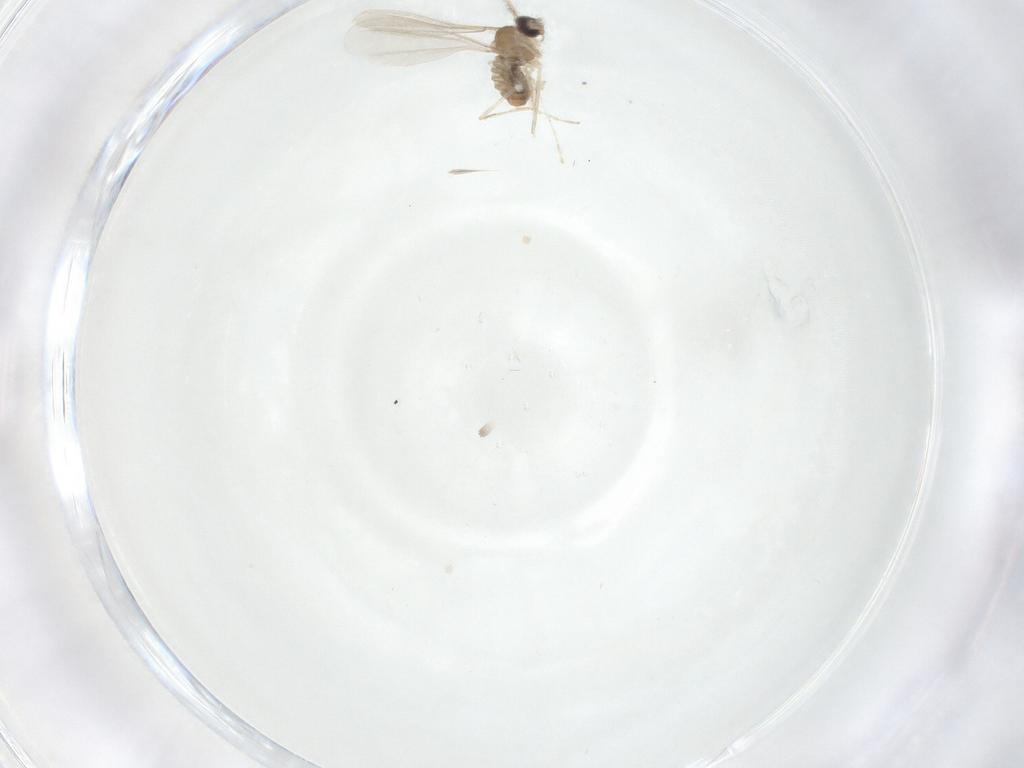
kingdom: Animalia
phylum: Arthropoda
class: Insecta
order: Diptera
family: Cecidomyiidae
